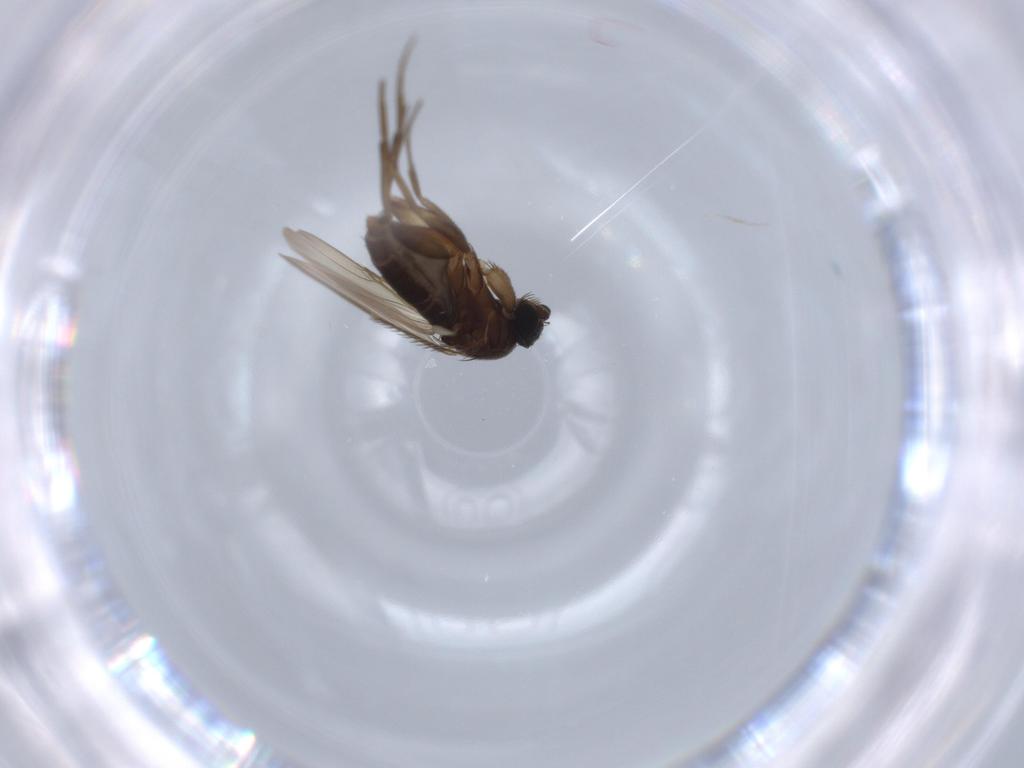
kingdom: Animalia
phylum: Arthropoda
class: Insecta
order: Diptera
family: Phoridae
